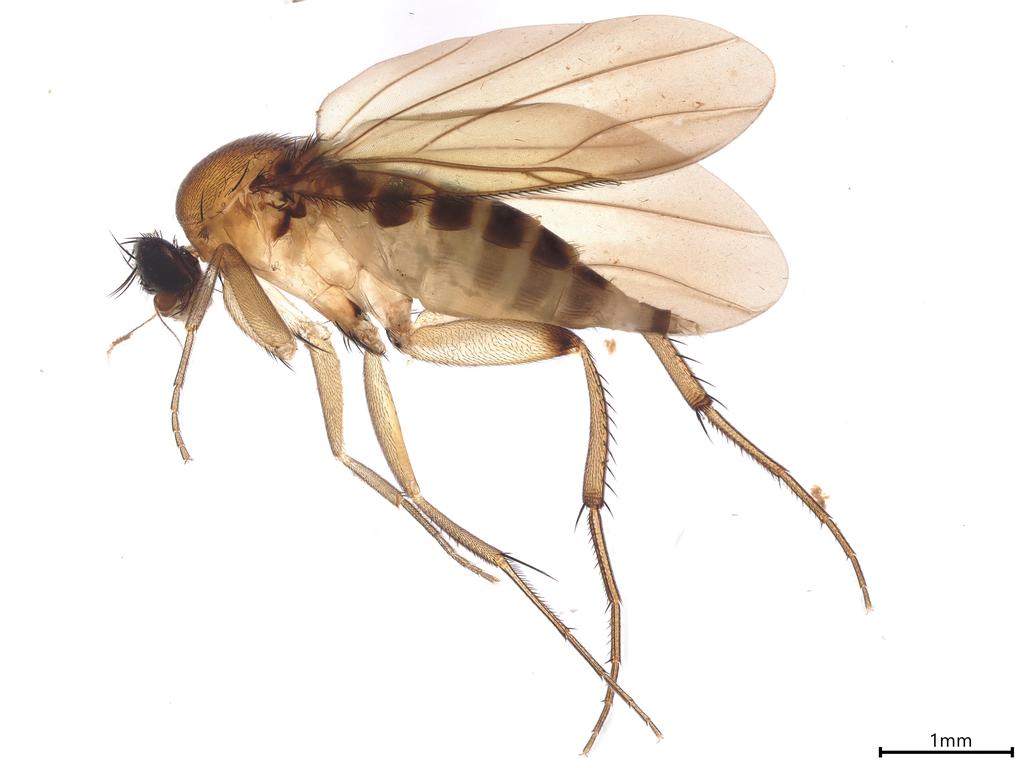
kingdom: Animalia
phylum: Arthropoda
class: Insecta
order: Diptera
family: Phoridae
